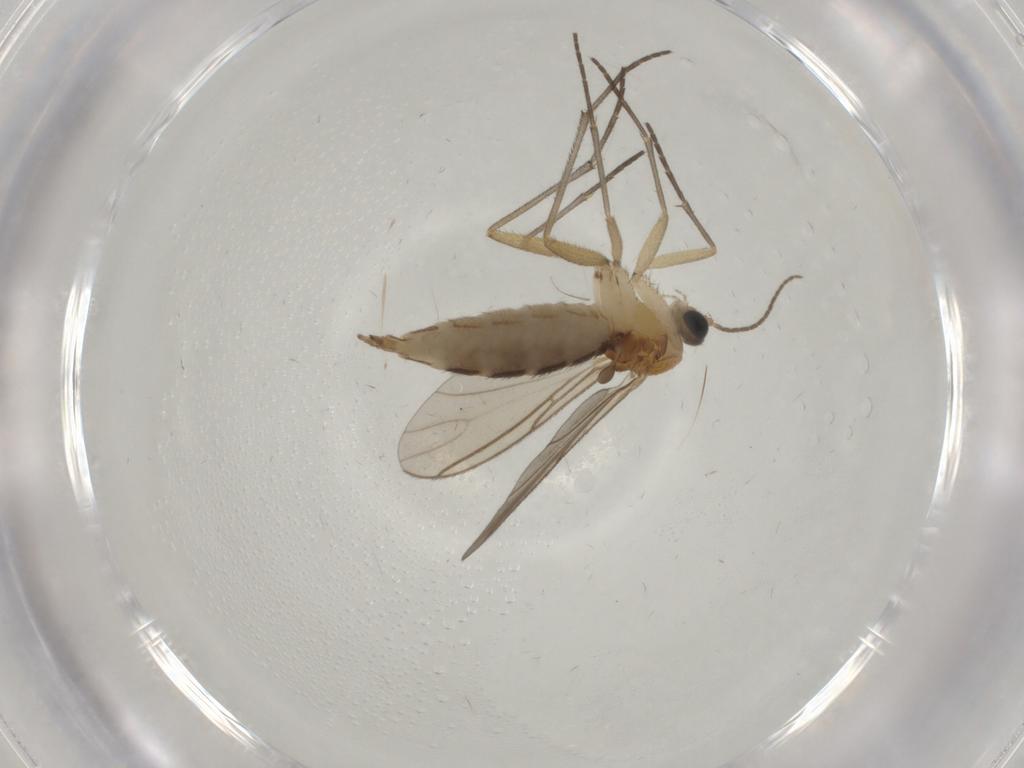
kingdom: Animalia
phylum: Arthropoda
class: Insecta
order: Diptera
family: Sciaridae
